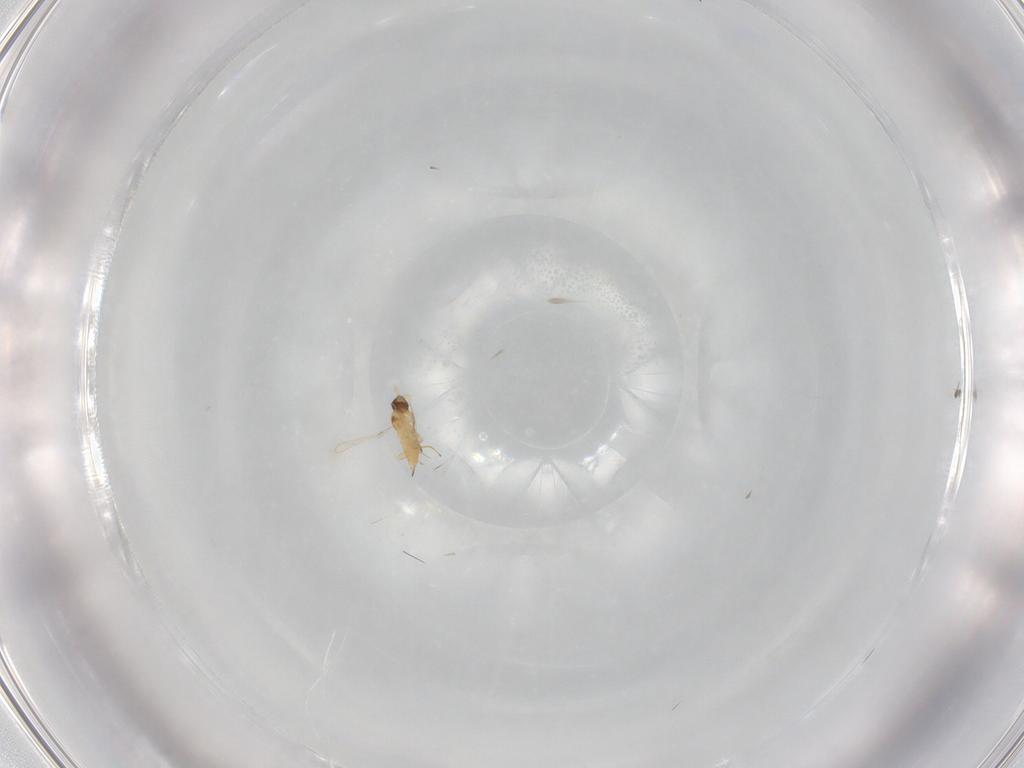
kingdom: Animalia
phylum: Arthropoda
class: Insecta
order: Hymenoptera
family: Mymaridae
